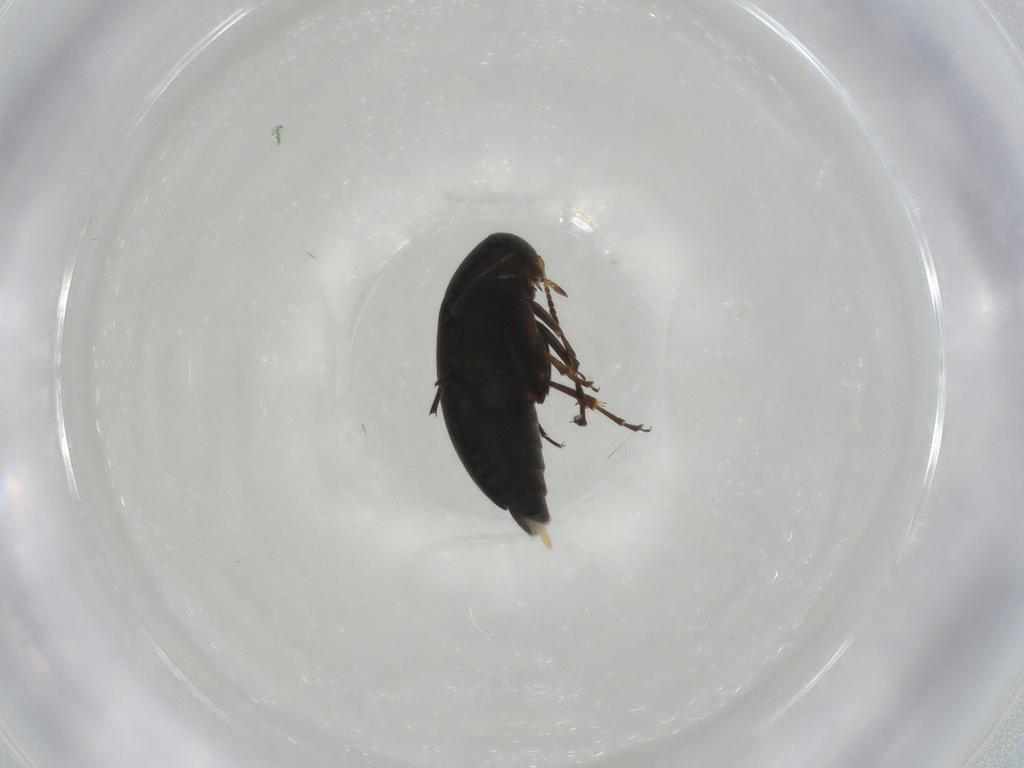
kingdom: Animalia
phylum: Arthropoda
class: Insecta
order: Coleoptera
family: Scraptiidae
